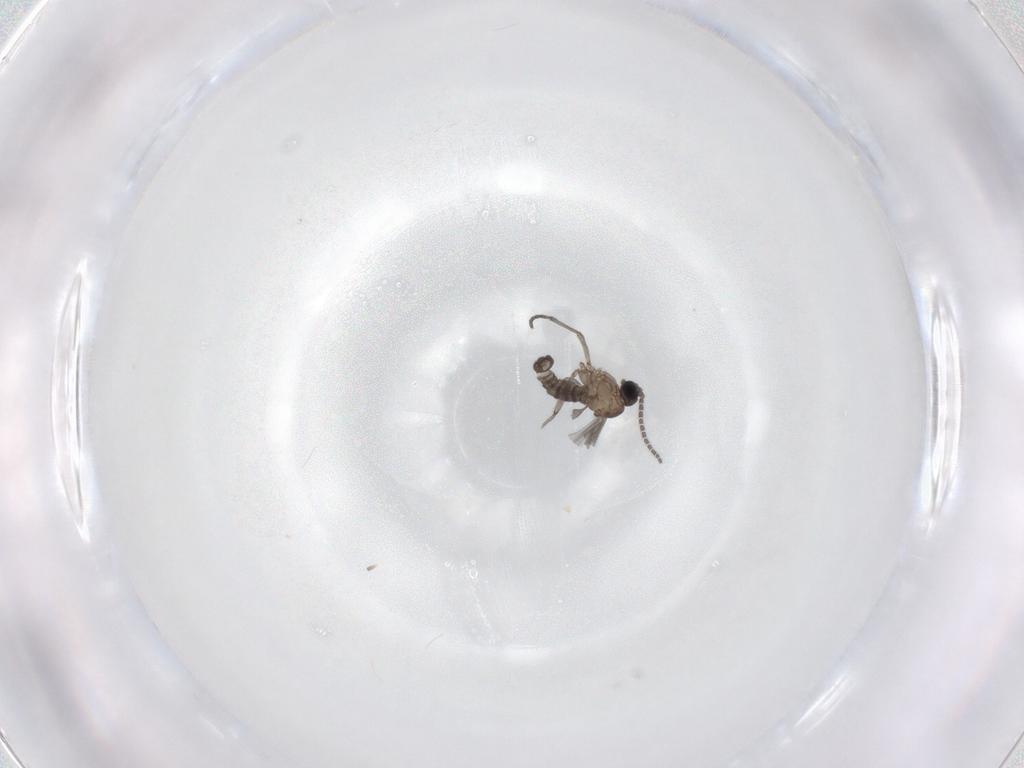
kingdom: Animalia
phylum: Arthropoda
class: Insecta
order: Diptera
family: Sciaridae
